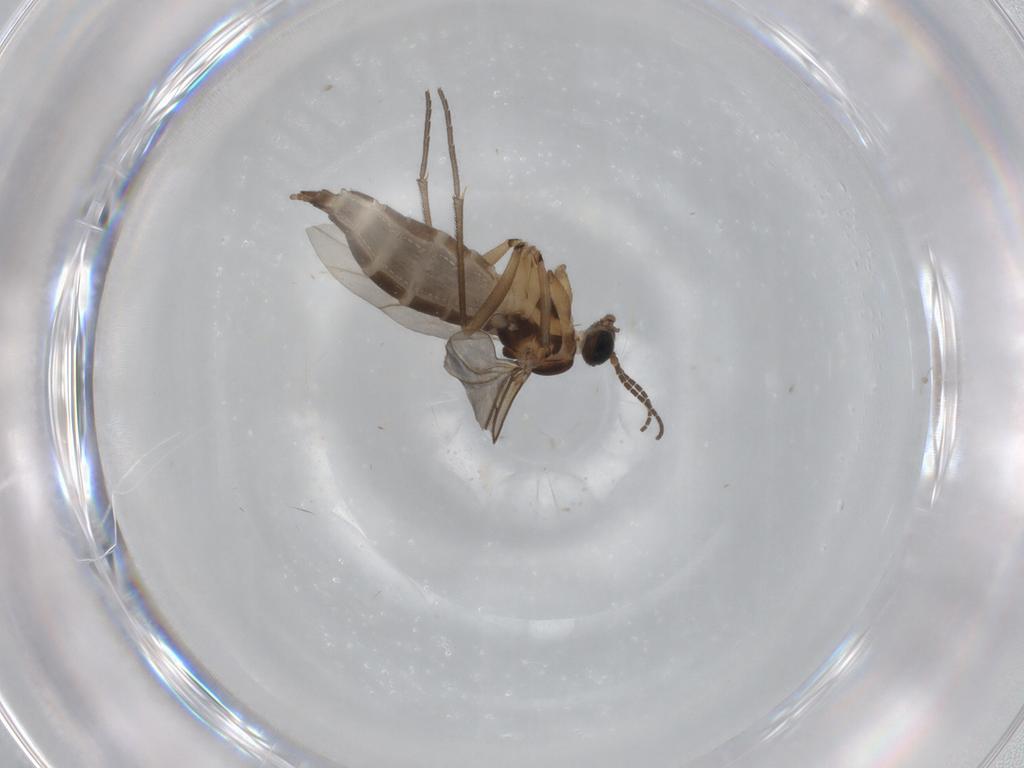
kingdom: Animalia
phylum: Arthropoda
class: Insecta
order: Diptera
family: Sciaridae
